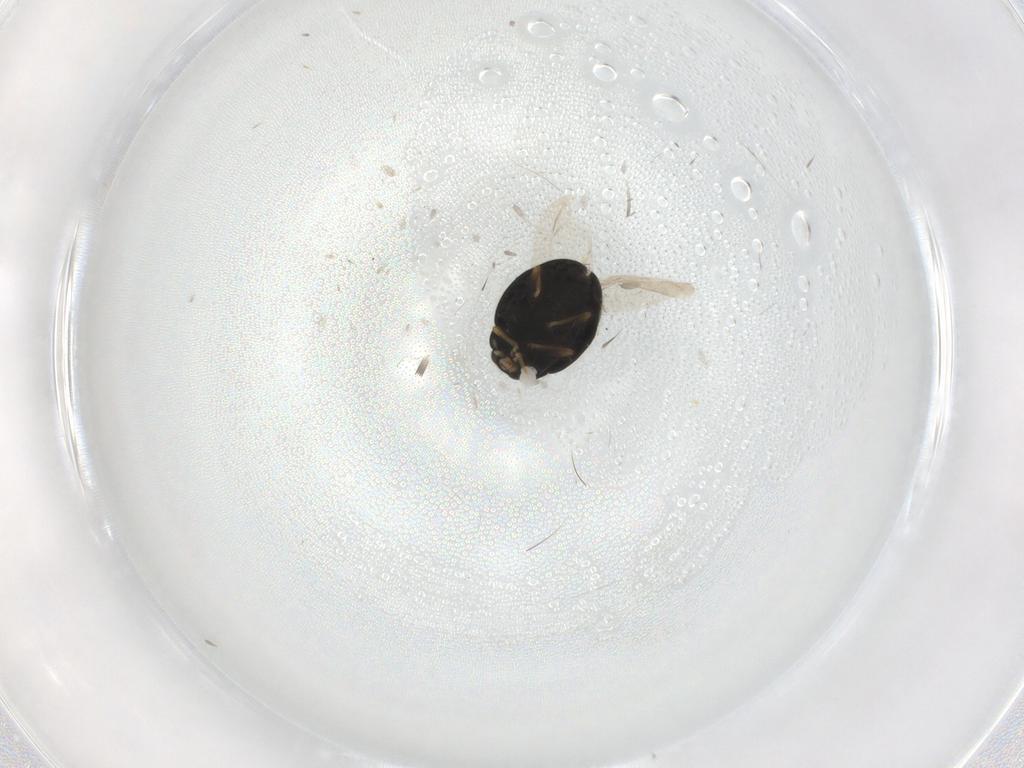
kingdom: Animalia
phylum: Arthropoda
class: Insecta
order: Coleoptera
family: Coccinellidae
